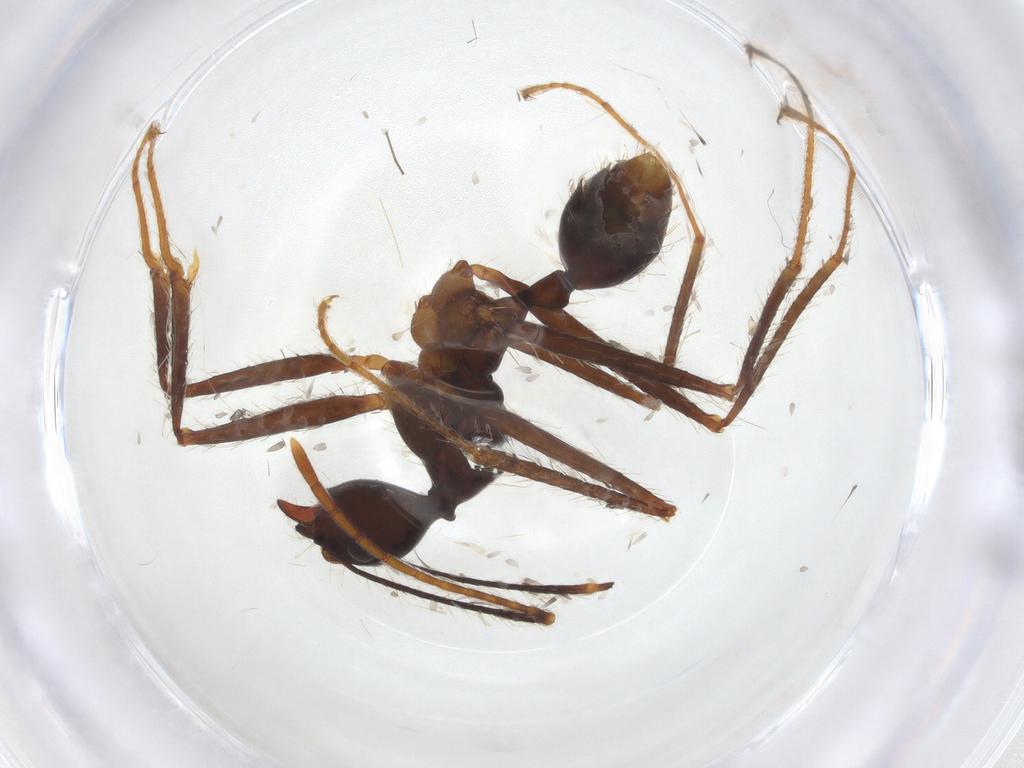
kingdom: Animalia
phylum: Arthropoda
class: Insecta
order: Hymenoptera
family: Formicidae
